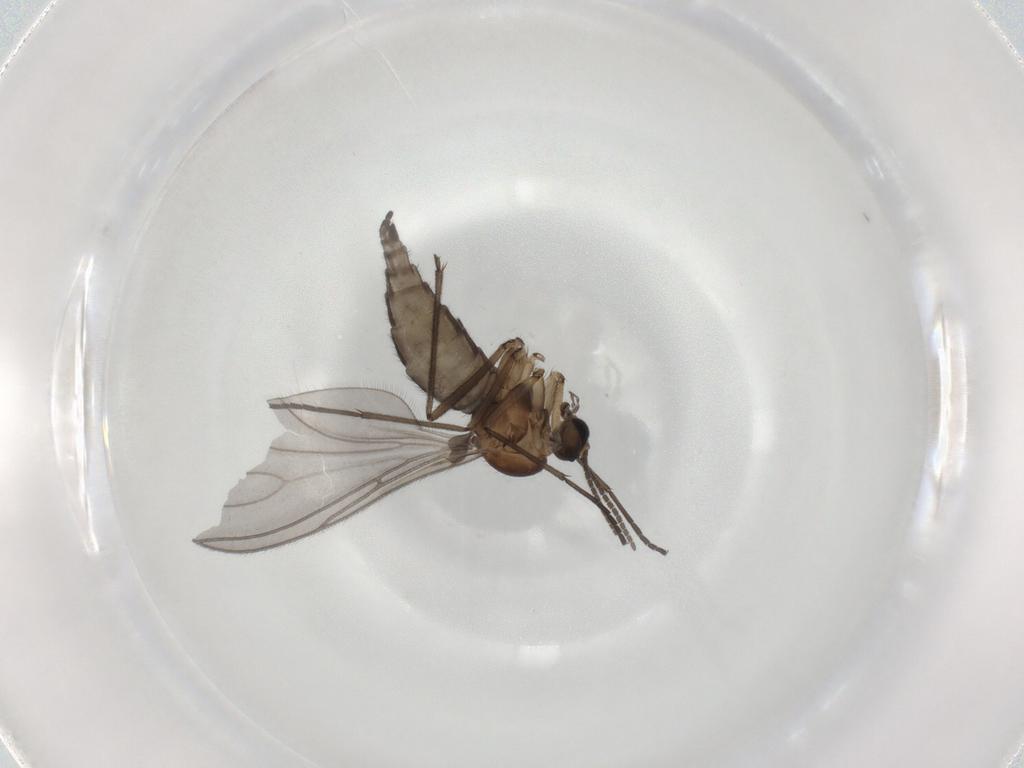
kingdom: Animalia
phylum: Arthropoda
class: Insecta
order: Diptera
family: Sciaridae
